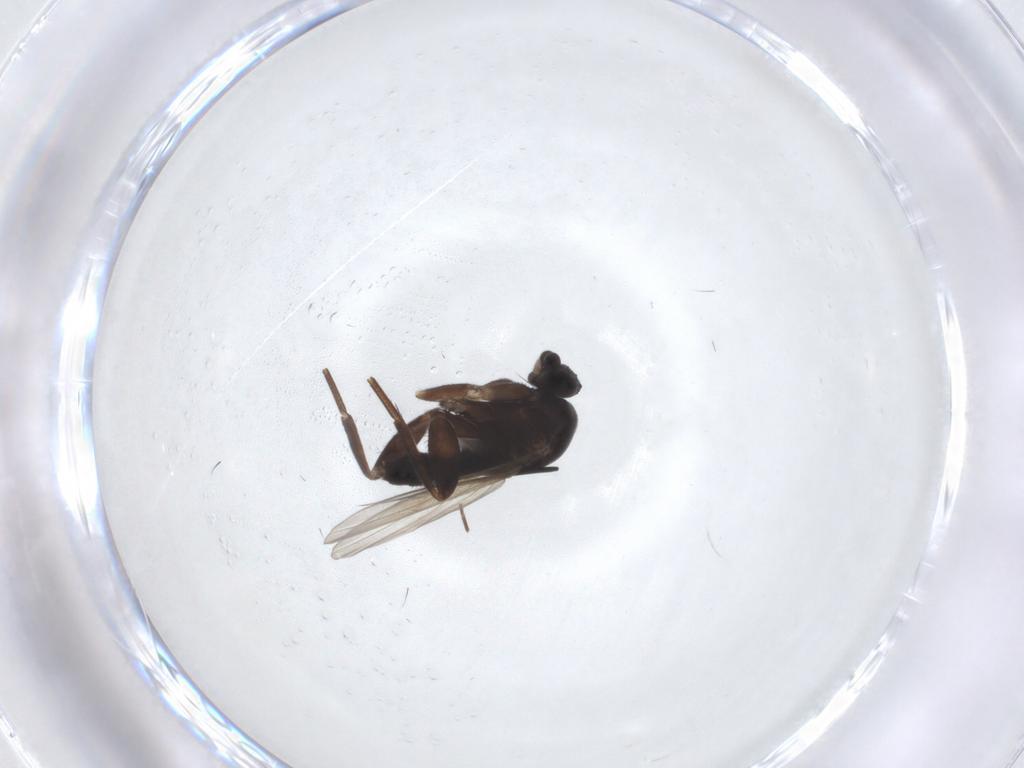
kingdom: Animalia
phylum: Arthropoda
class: Insecta
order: Diptera
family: Phoridae
